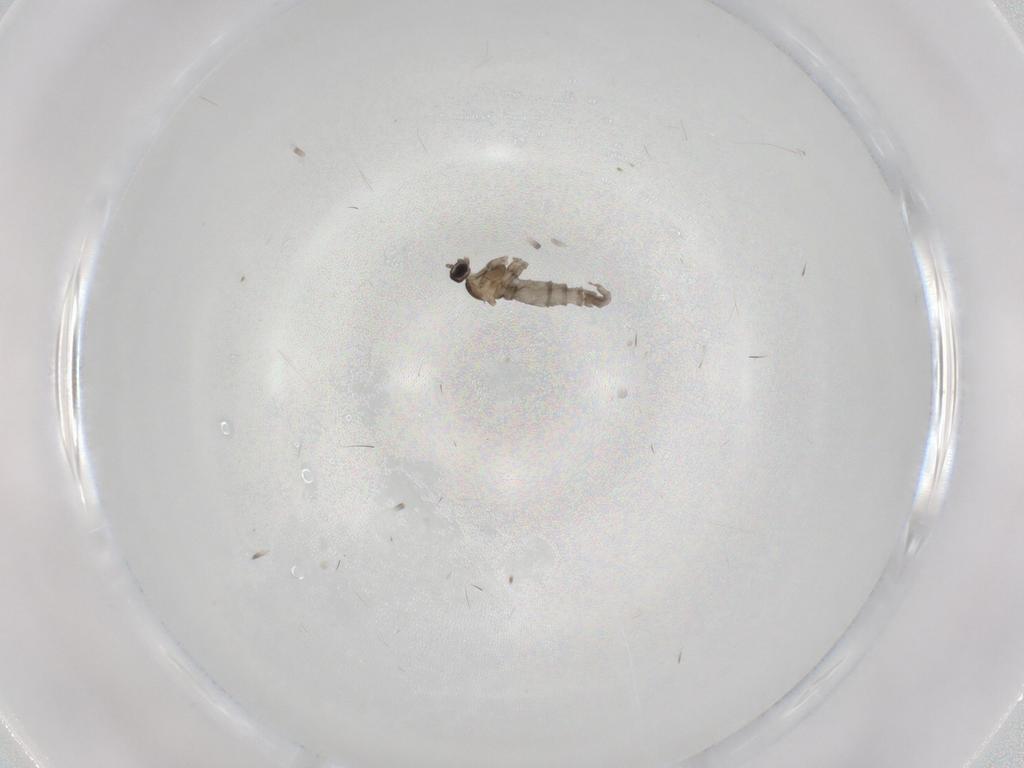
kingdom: Animalia
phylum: Arthropoda
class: Insecta
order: Diptera
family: Cecidomyiidae
